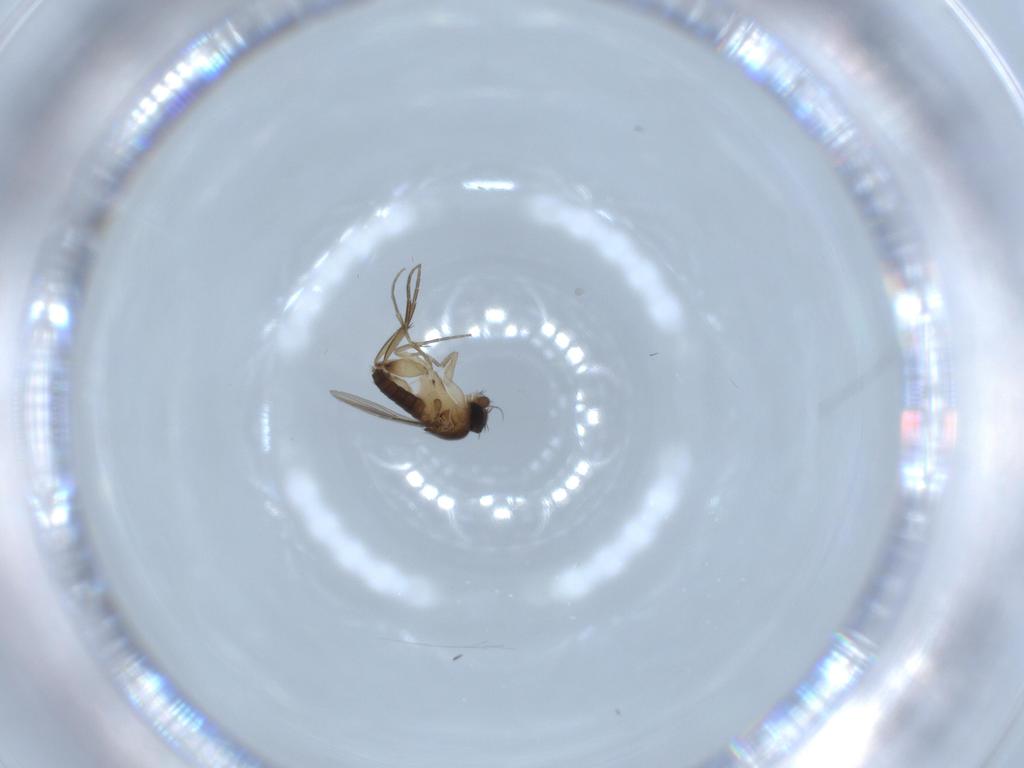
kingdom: Animalia
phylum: Arthropoda
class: Insecta
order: Diptera
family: Phoridae
